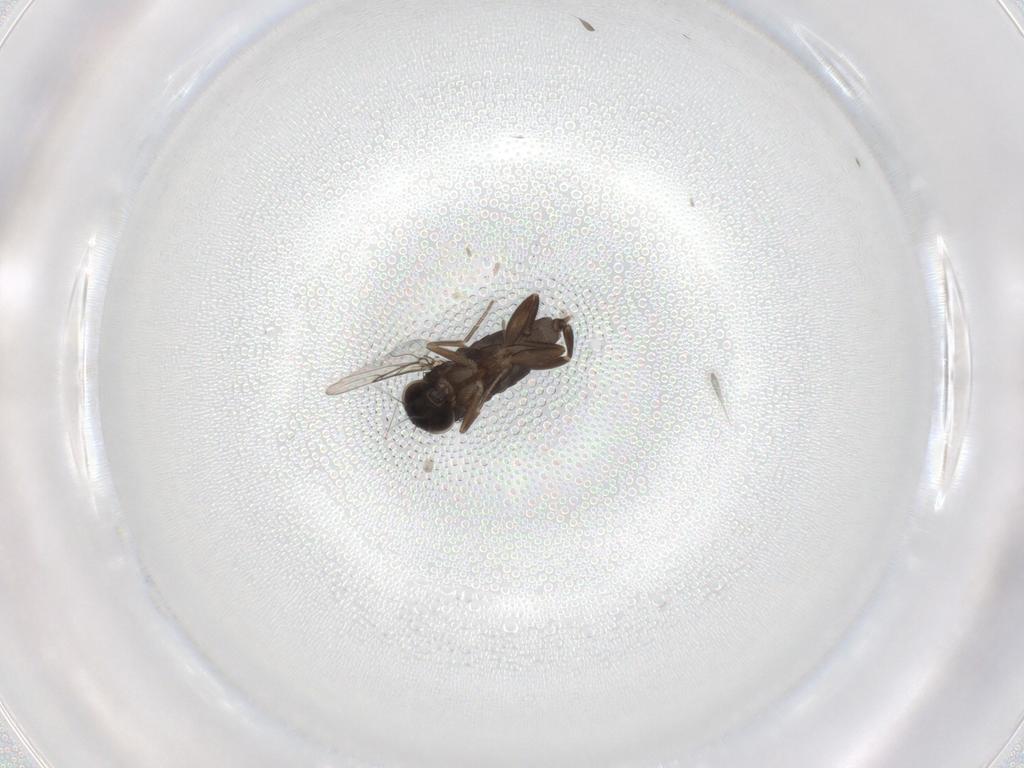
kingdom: Animalia
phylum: Arthropoda
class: Insecta
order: Diptera
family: Phoridae
